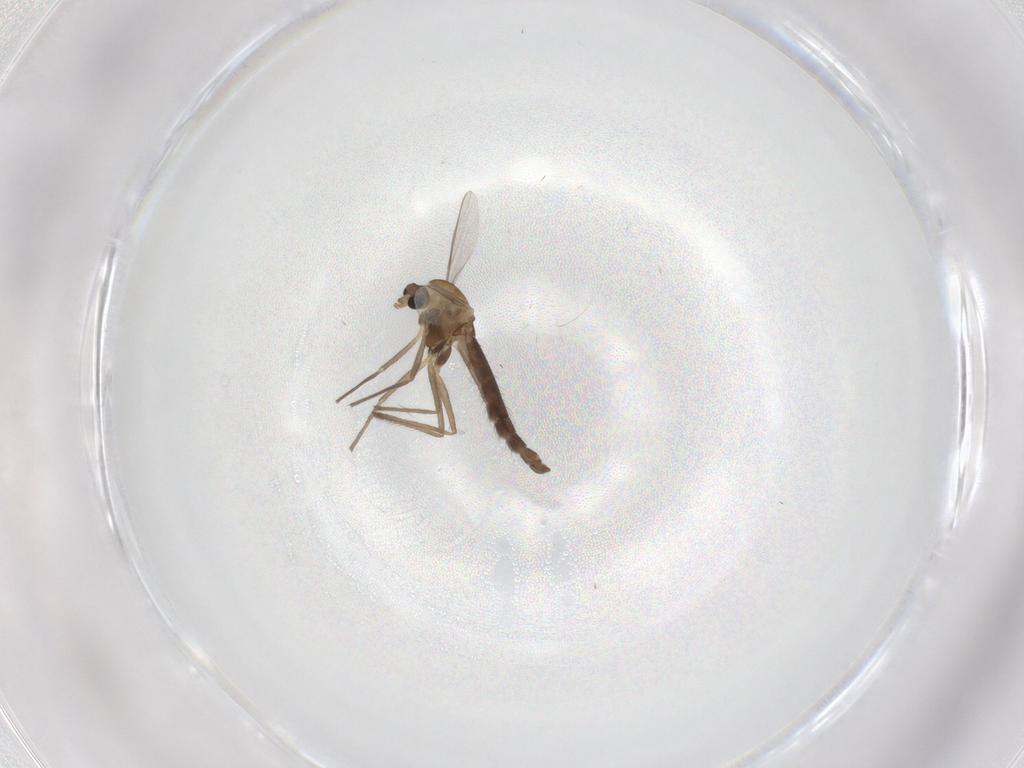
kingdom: Animalia
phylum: Arthropoda
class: Insecta
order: Diptera
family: Chironomidae
